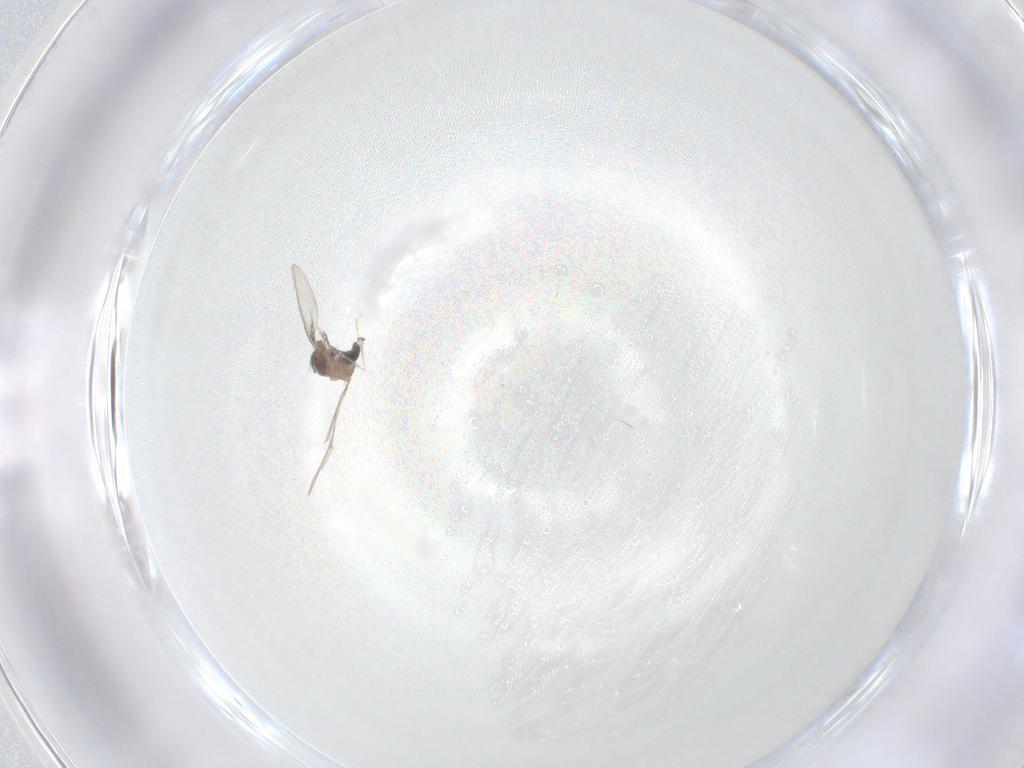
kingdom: Animalia
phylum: Arthropoda
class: Insecta
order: Diptera
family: Cecidomyiidae
